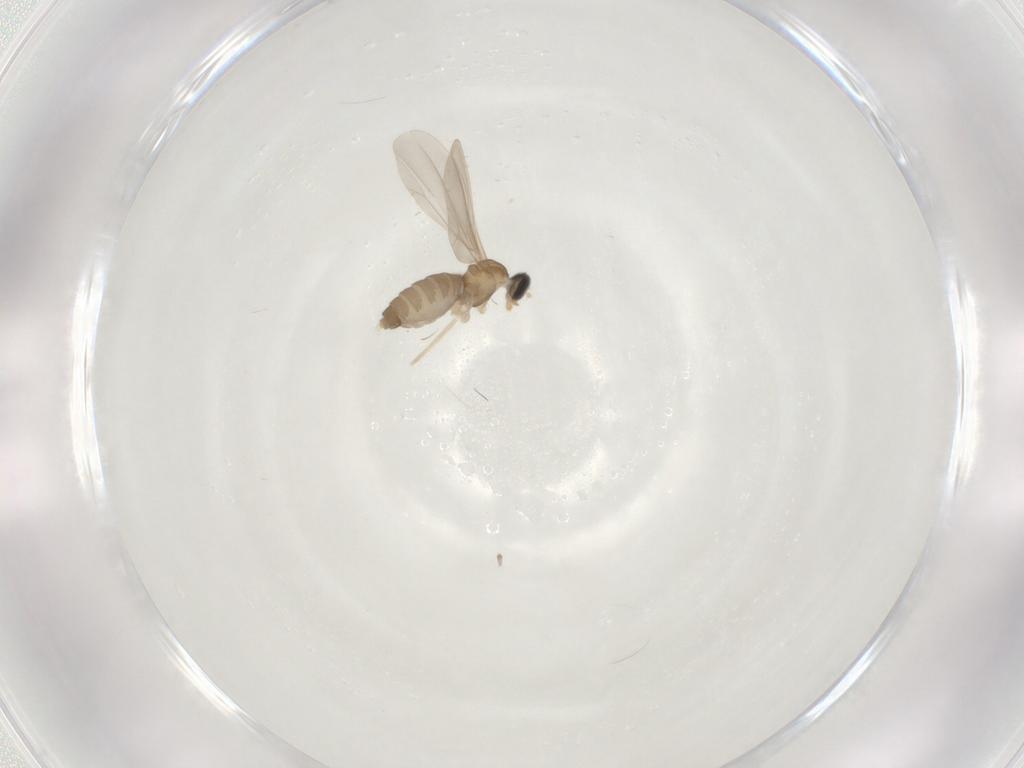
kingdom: Animalia
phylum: Arthropoda
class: Insecta
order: Diptera
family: Cecidomyiidae
